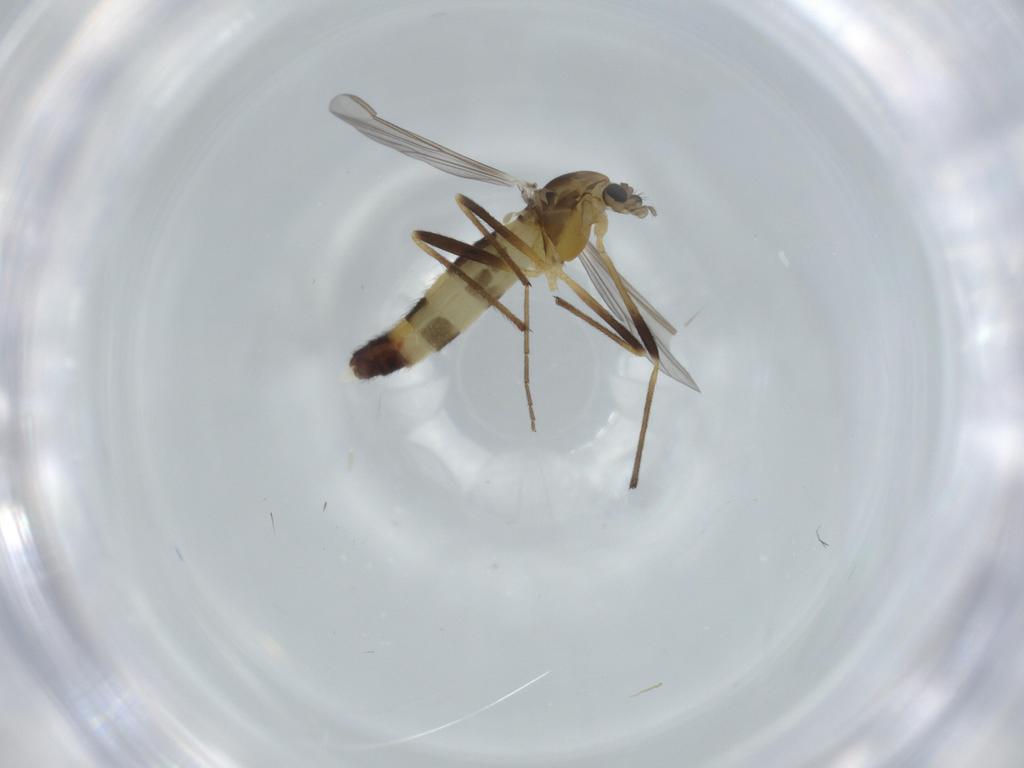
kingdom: Animalia
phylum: Arthropoda
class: Insecta
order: Diptera
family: Chironomidae
